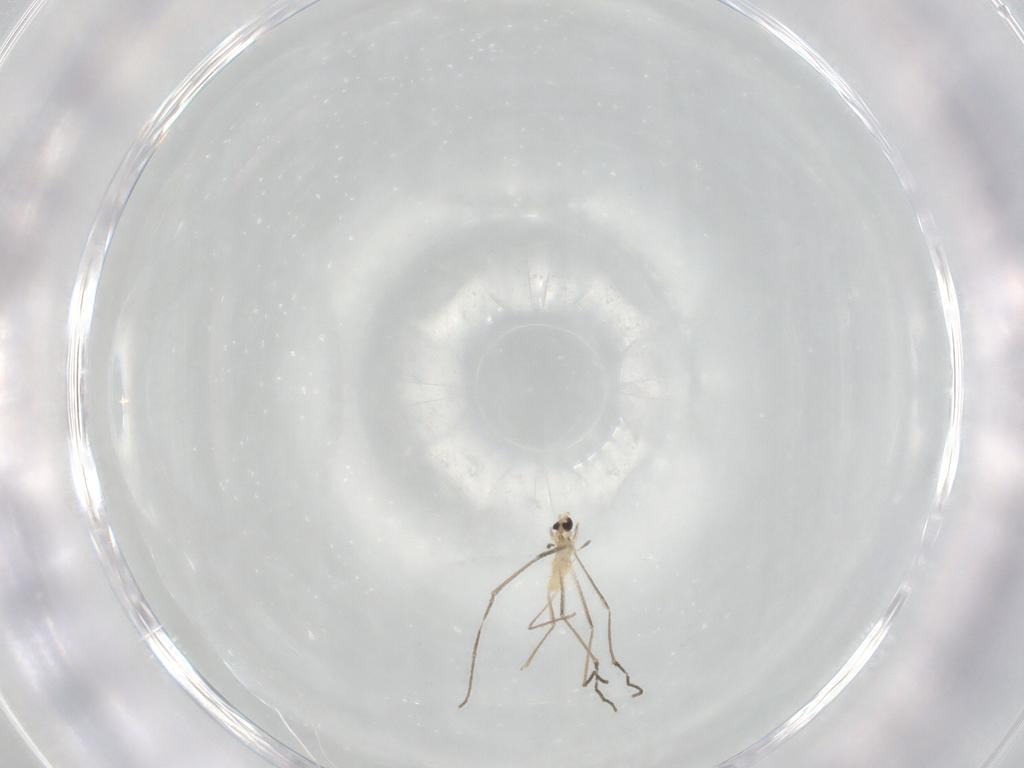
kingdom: Animalia
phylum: Arthropoda
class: Insecta
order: Diptera
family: Cecidomyiidae
